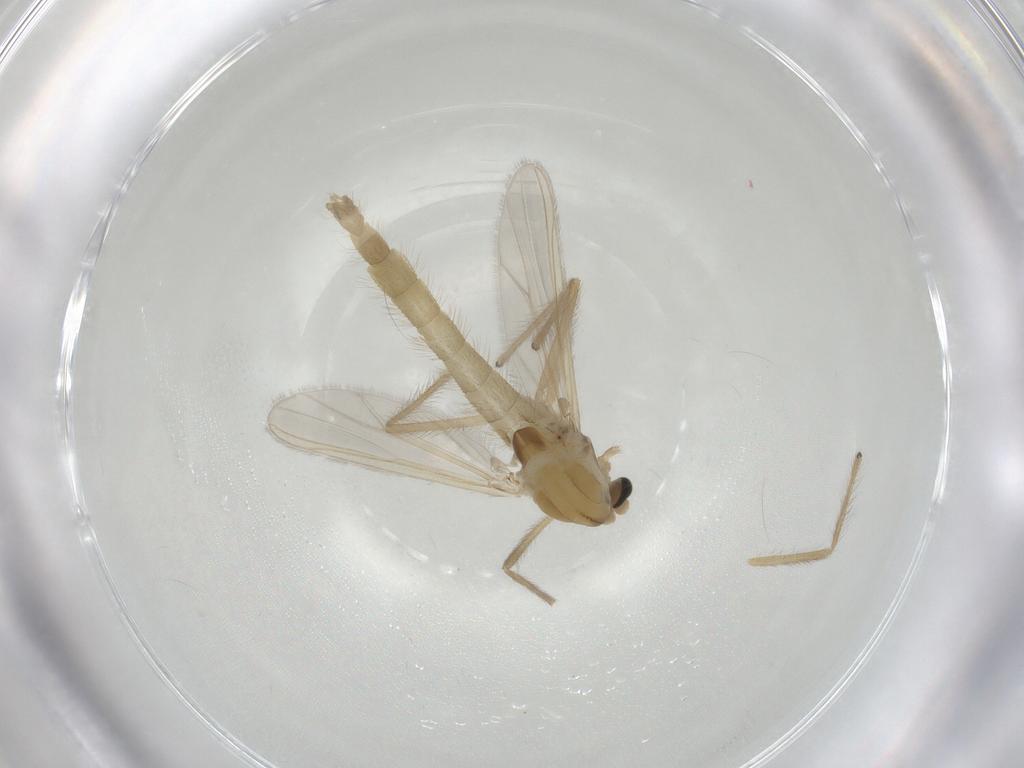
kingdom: Animalia
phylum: Arthropoda
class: Insecta
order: Diptera
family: Chironomidae
